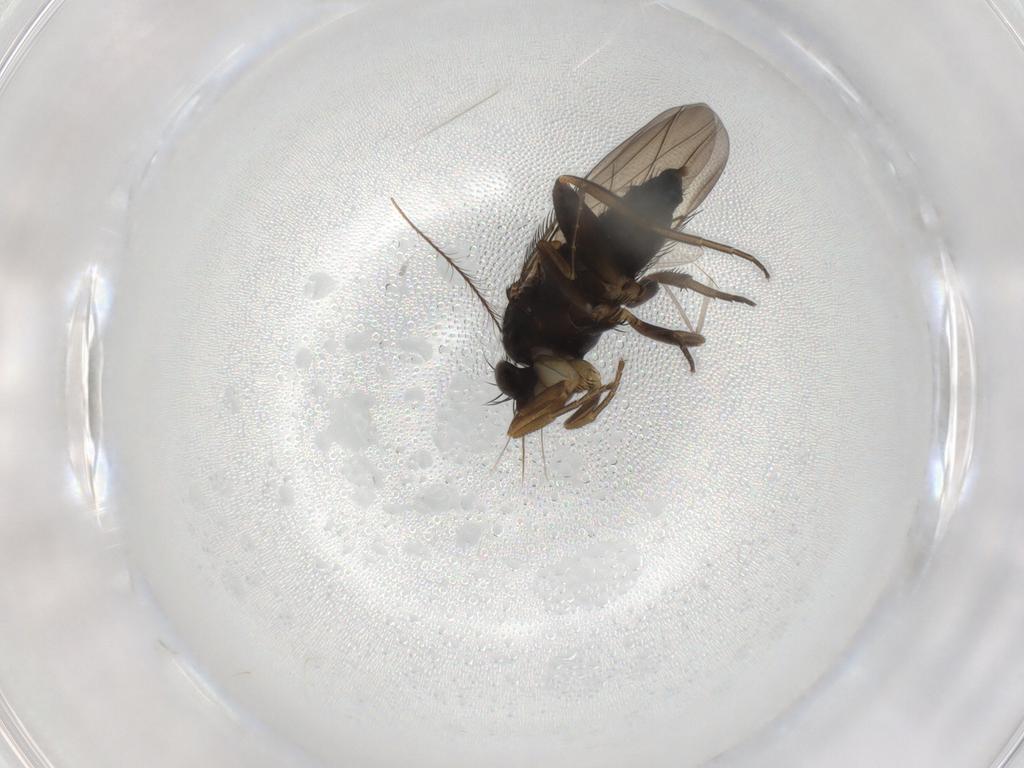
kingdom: Animalia
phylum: Arthropoda
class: Insecta
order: Diptera
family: Phoridae
